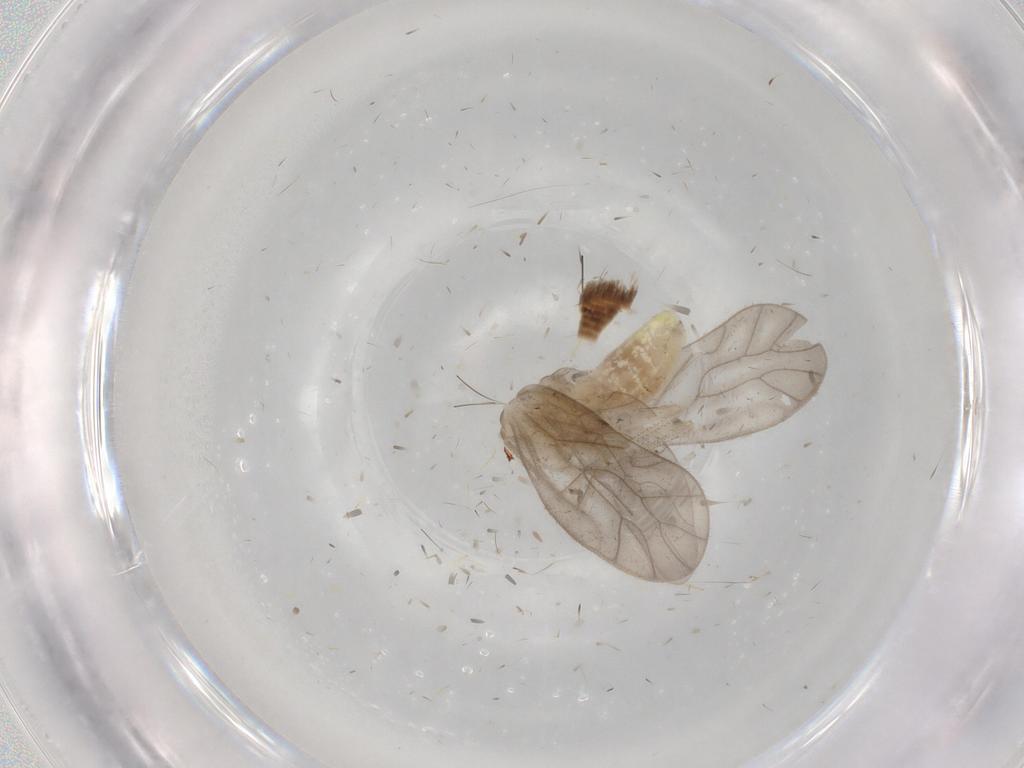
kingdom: Animalia
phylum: Arthropoda
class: Insecta
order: Psocodea
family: Caeciliusidae
